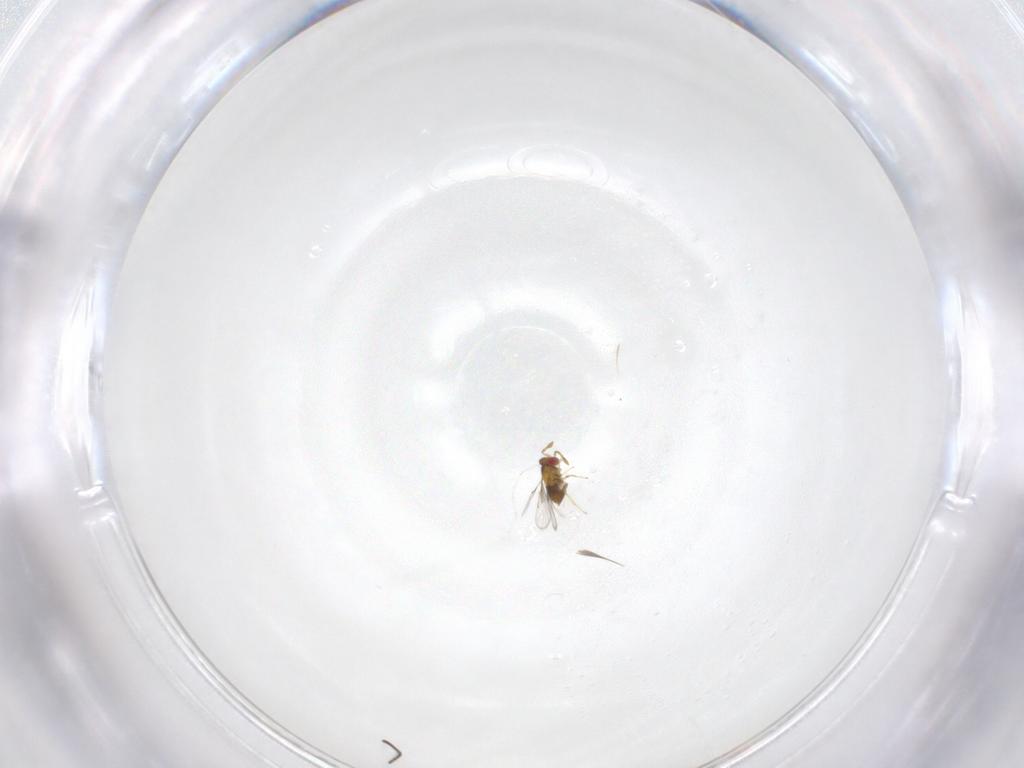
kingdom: Animalia
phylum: Arthropoda
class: Insecta
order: Hymenoptera
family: Trichogrammatidae
